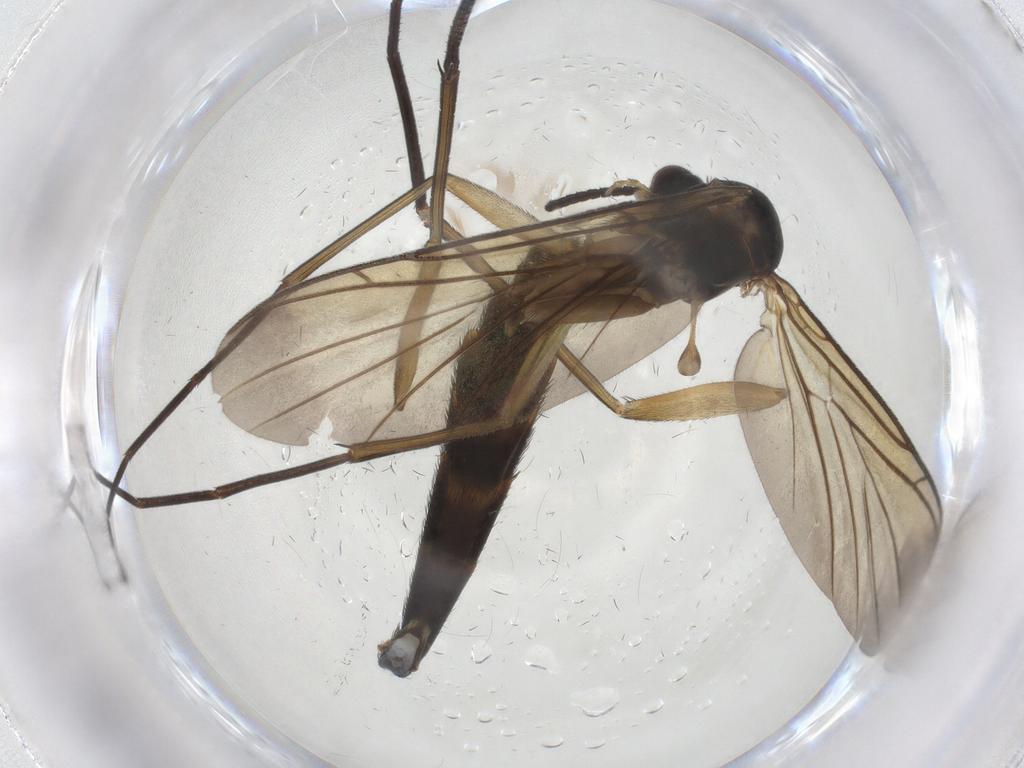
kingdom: Animalia
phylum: Arthropoda
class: Insecta
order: Diptera
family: Keroplatidae
